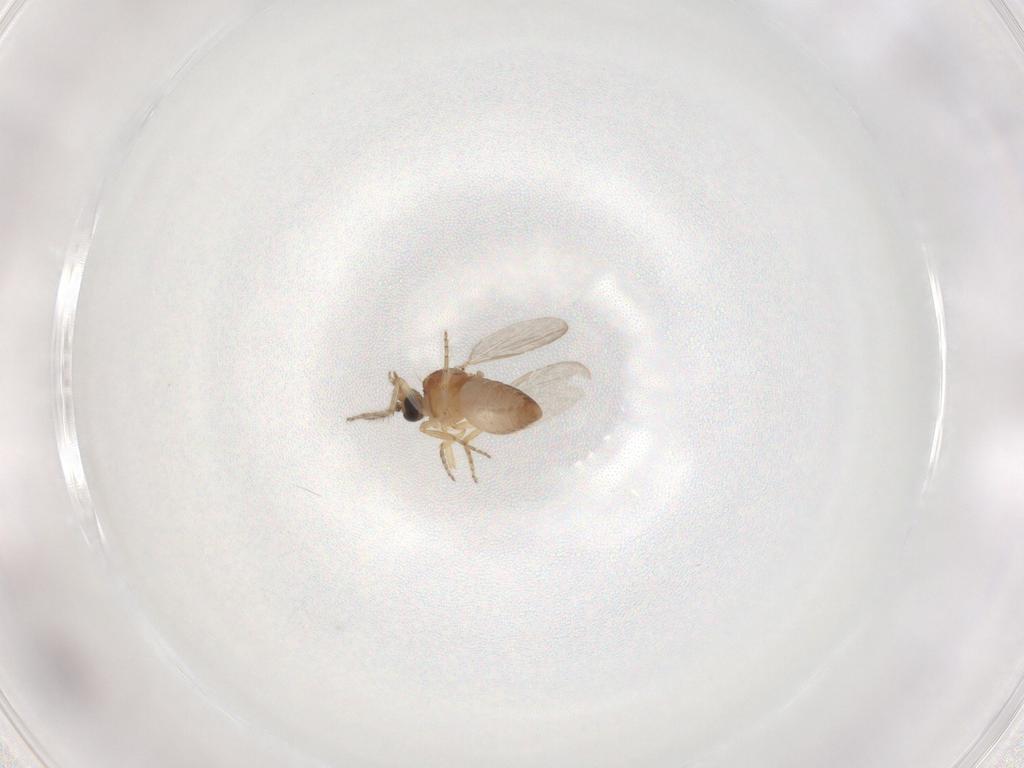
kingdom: Animalia
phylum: Arthropoda
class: Insecta
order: Diptera
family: Ceratopogonidae
